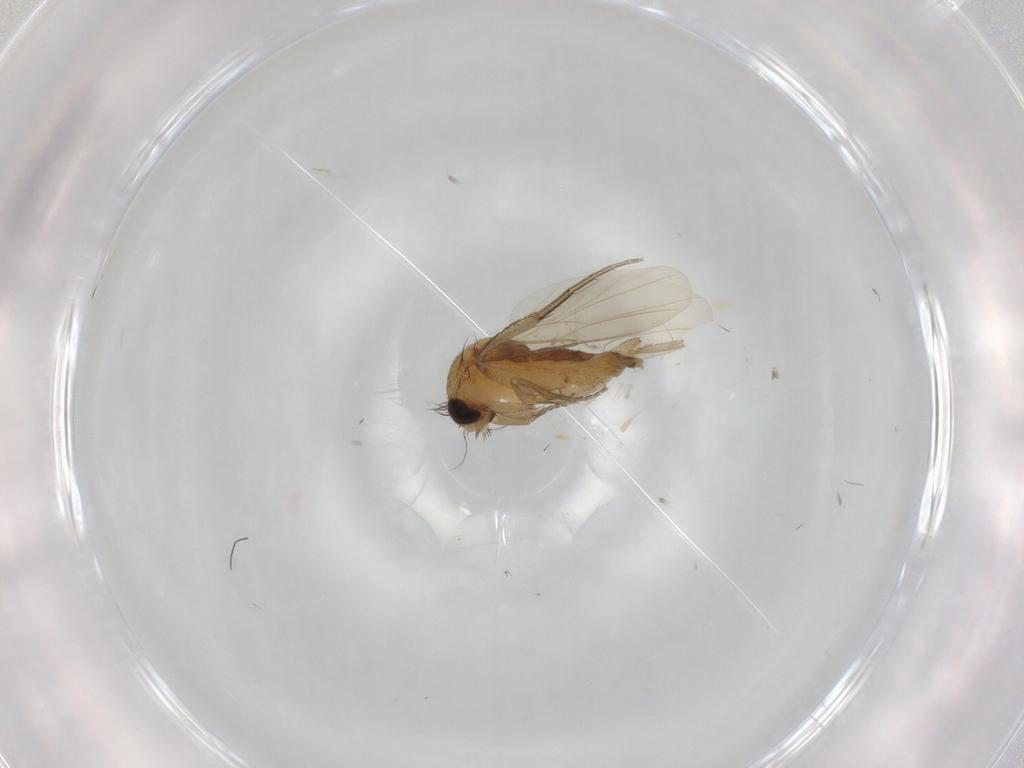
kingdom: Animalia
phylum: Arthropoda
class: Insecta
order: Diptera
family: Phoridae
